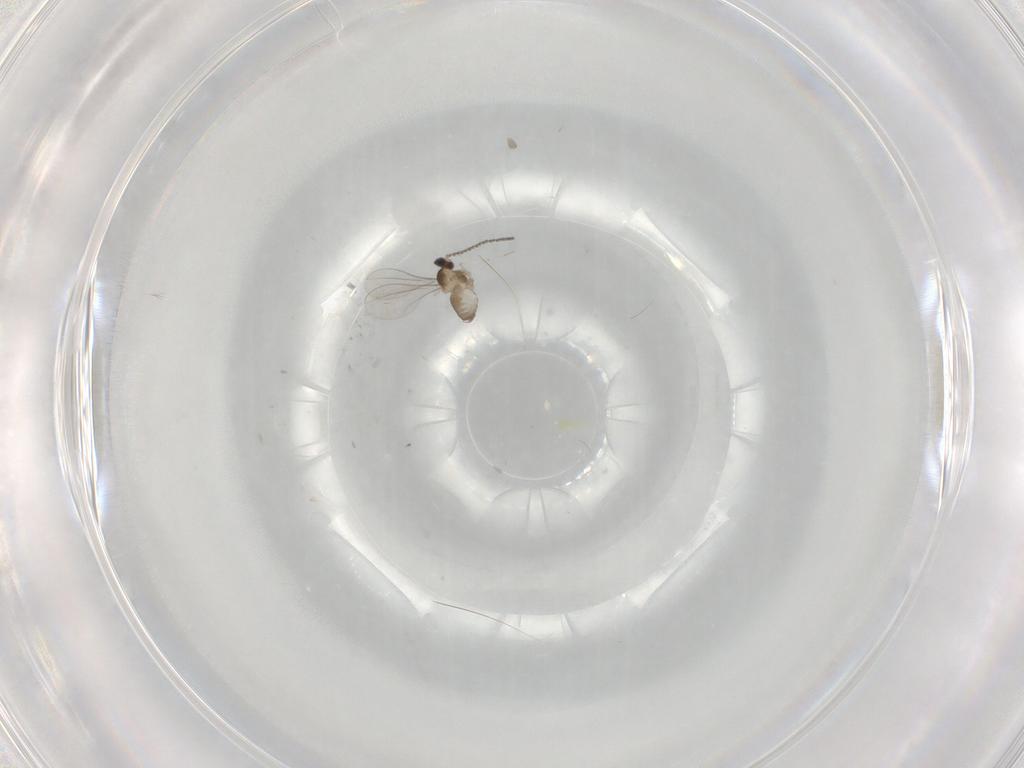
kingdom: Animalia
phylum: Arthropoda
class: Insecta
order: Diptera
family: Cecidomyiidae
